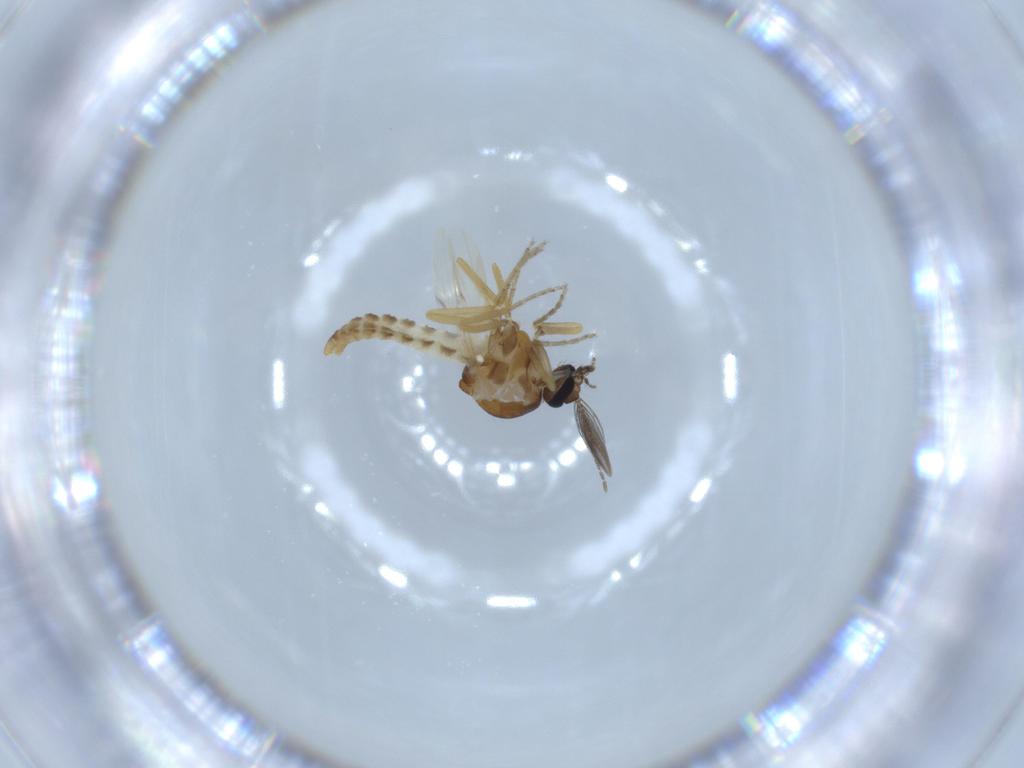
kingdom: Animalia
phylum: Arthropoda
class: Insecta
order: Diptera
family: Ceratopogonidae
